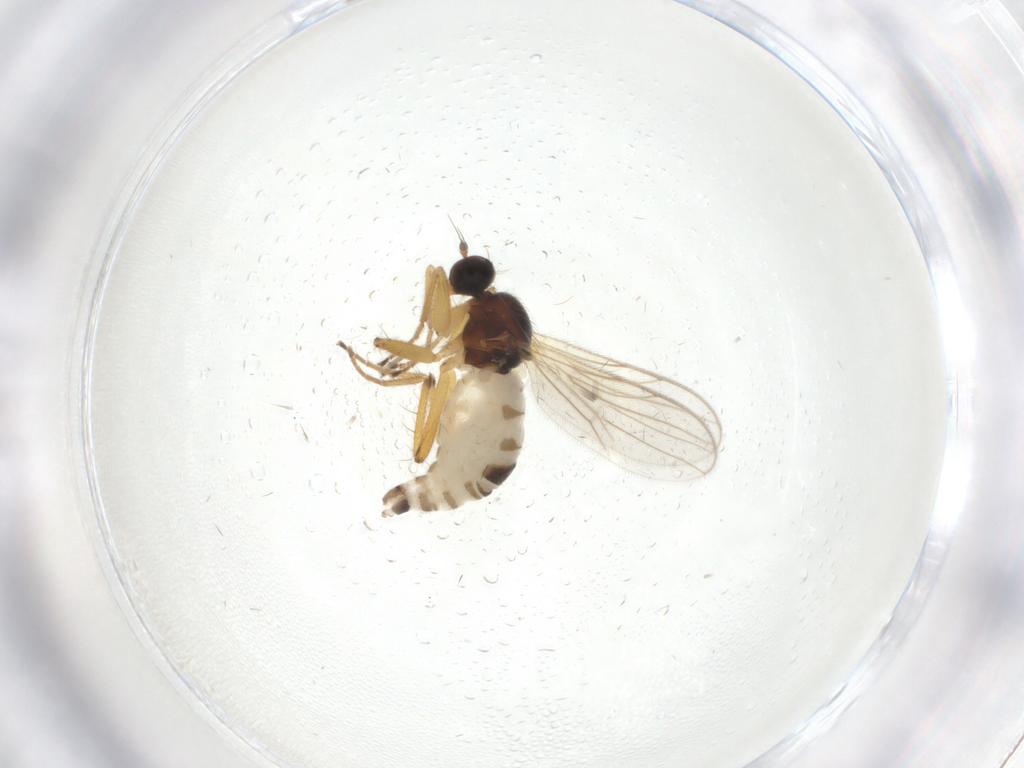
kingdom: Animalia
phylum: Arthropoda
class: Insecta
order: Diptera
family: Hybotidae
